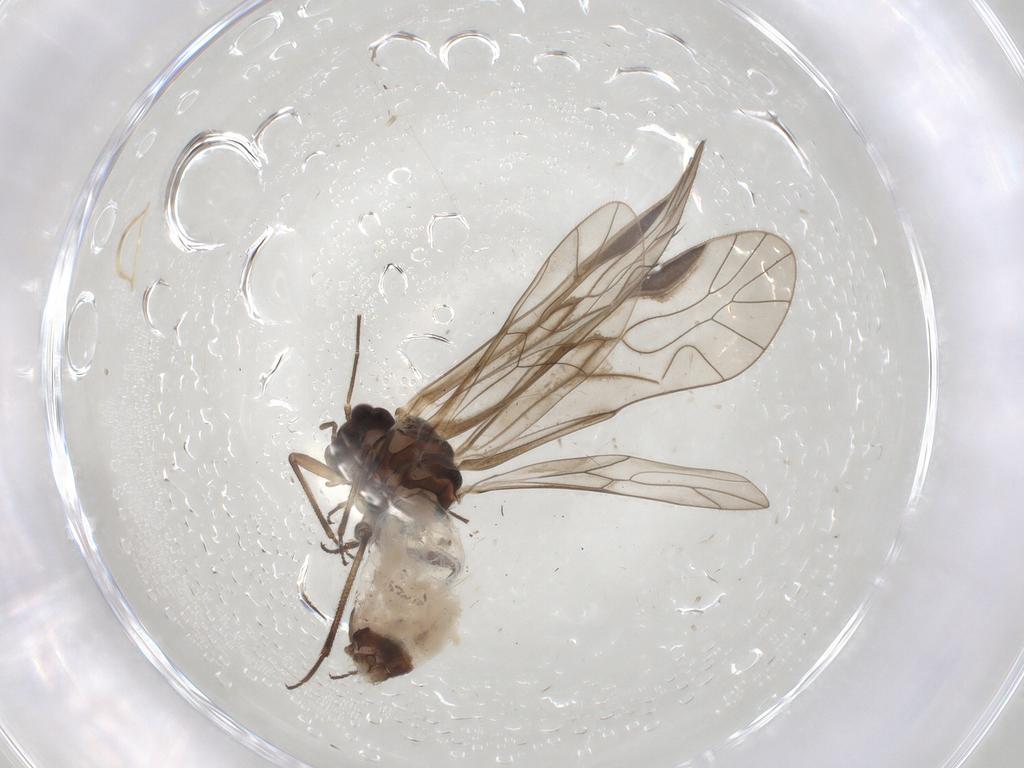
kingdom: Animalia
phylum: Arthropoda
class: Insecta
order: Psocodea
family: Elipsocidae
